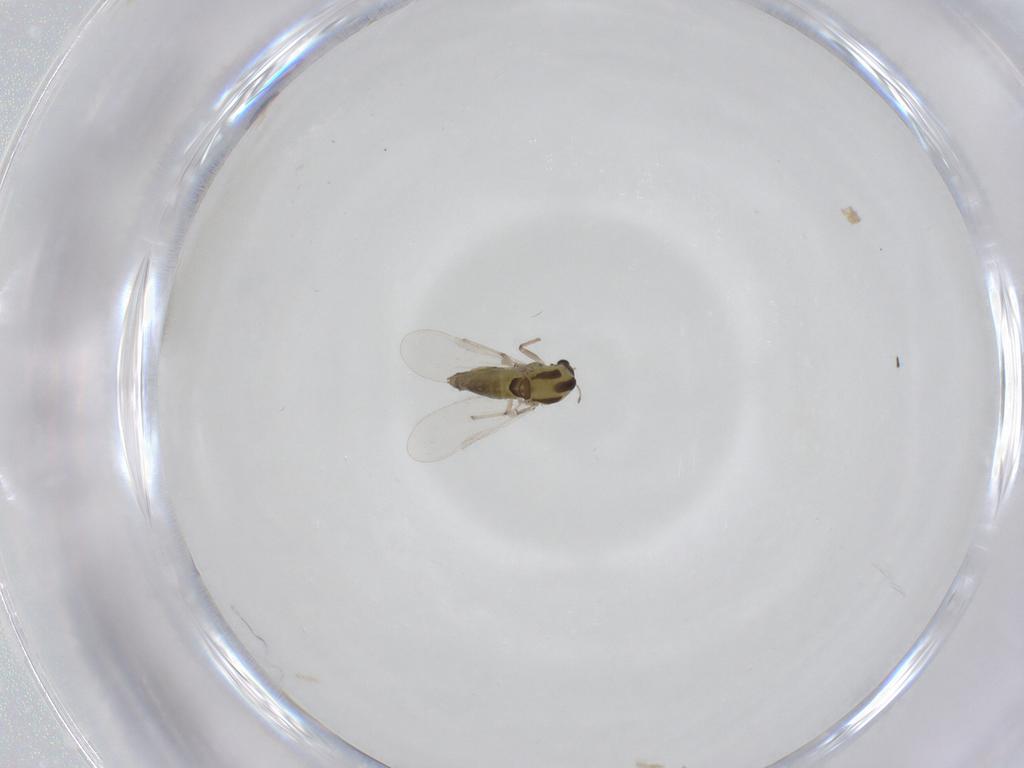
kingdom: Animalia
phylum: Arthropoda
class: Insecta
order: Diptera
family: Chironomidae
